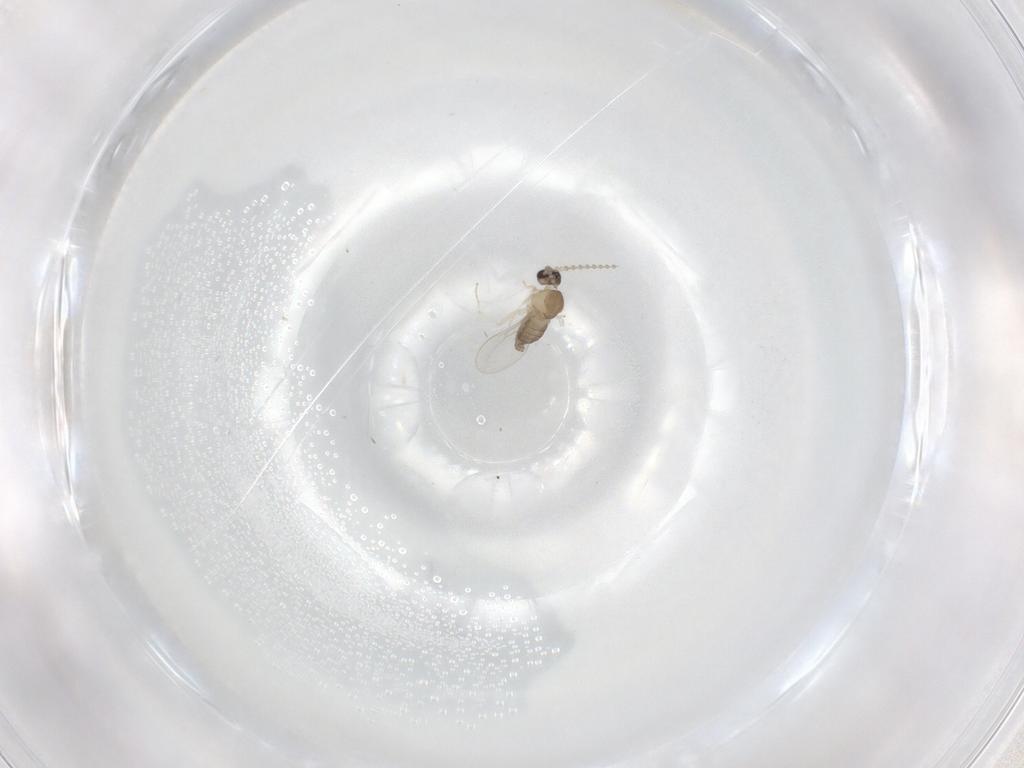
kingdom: Animalia
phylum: Arthropoda
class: Insecta
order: Diptera
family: Cecidomyiidae
